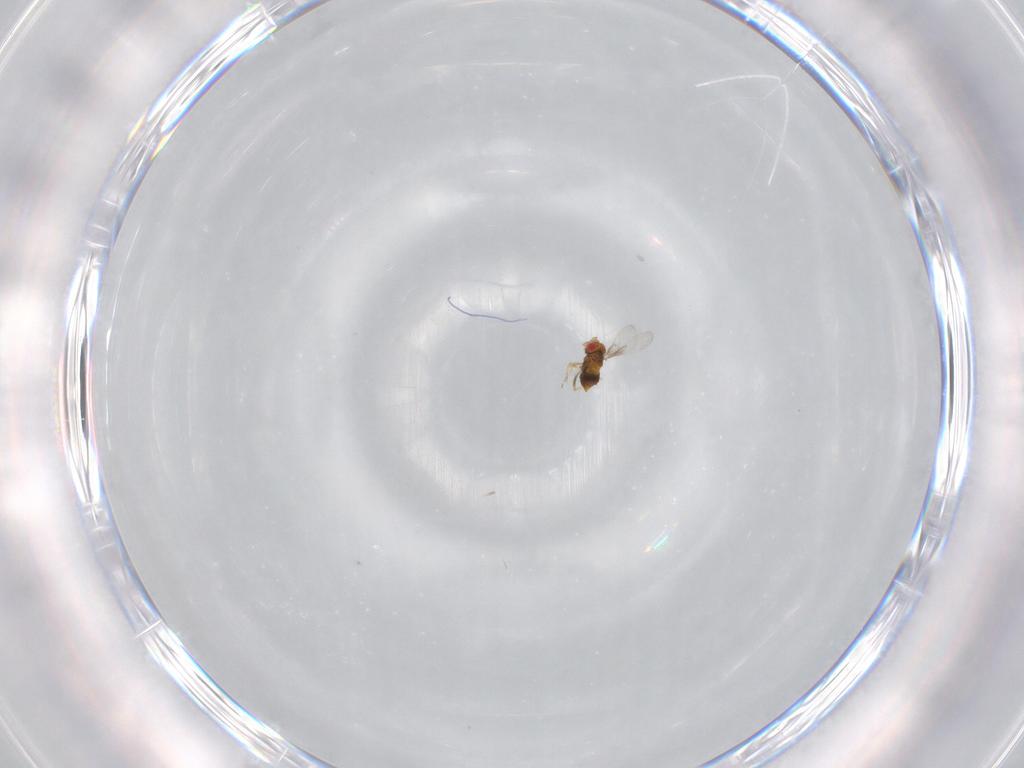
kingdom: Animalia
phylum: Arthropoda
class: Insecta
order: Hymenoptera
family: Trichogrammatidae
